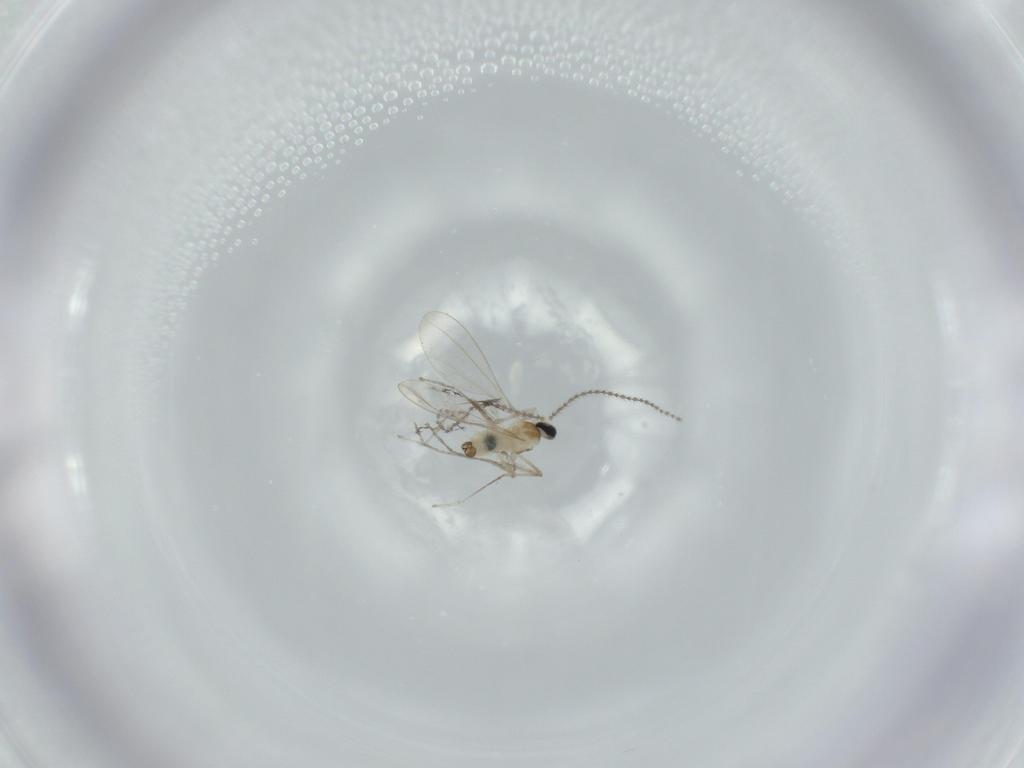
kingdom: Animalia
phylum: Arthropoda
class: Insecta
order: Diptera
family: Cecidomyiidae
